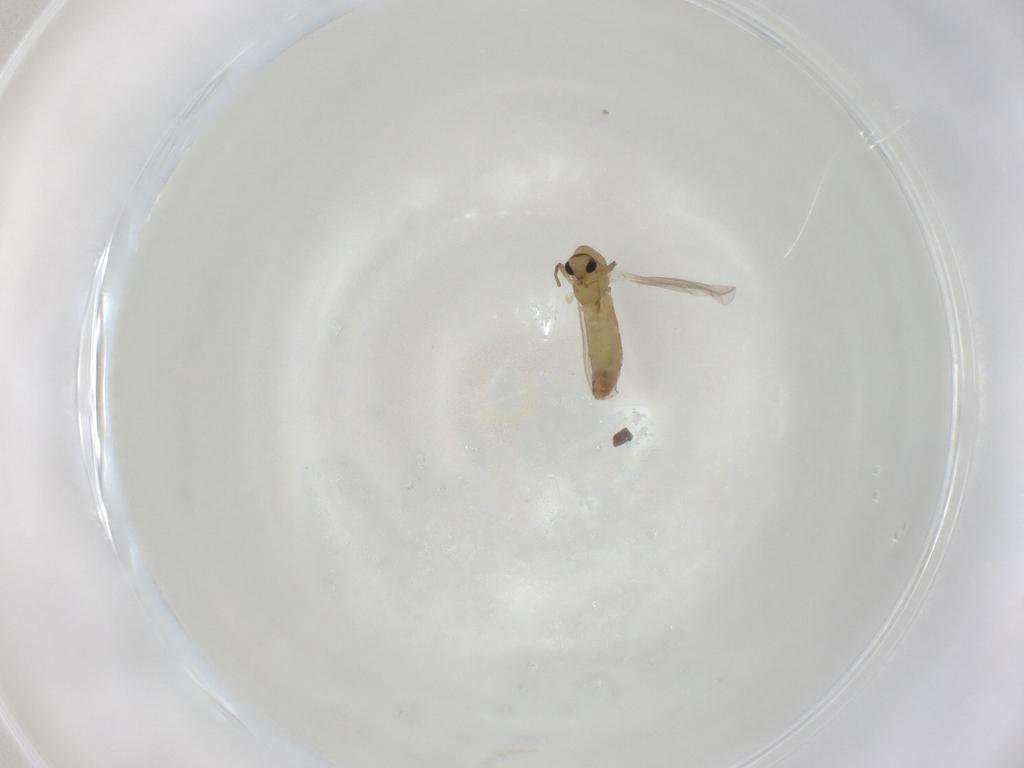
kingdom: Animalia
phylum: Arthropoda
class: Insecta
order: Diptera
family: Chironomidae
